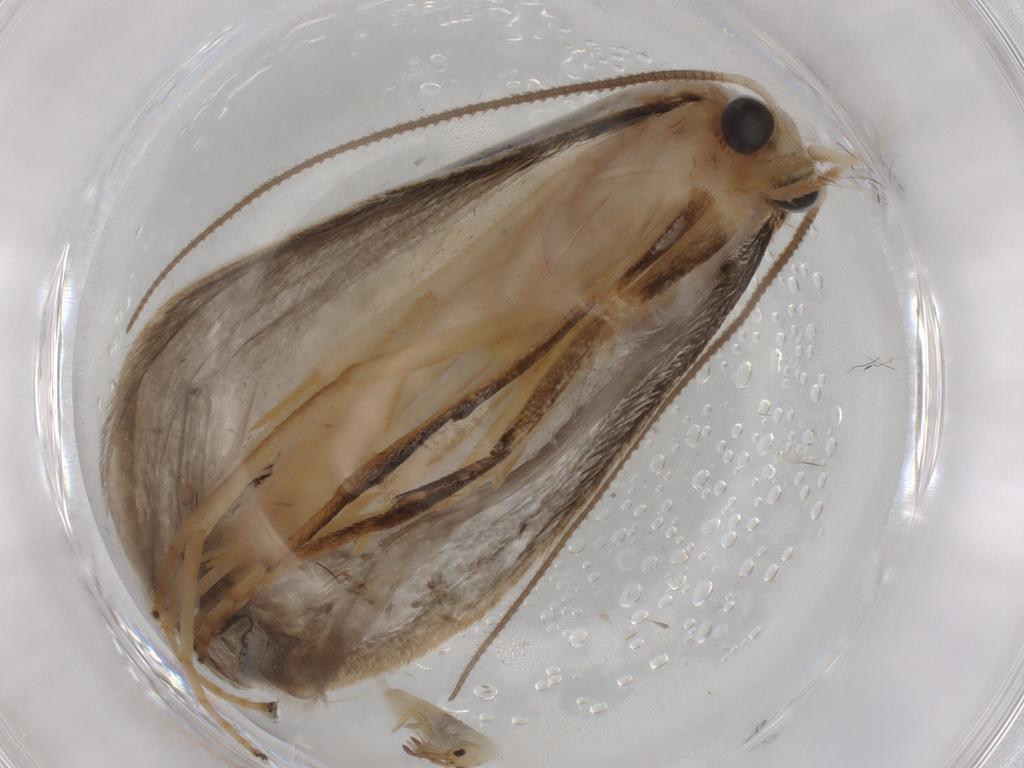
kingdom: Animalia
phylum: Arthropoda
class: Insecta
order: Lepidoptera
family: Yponomeutidae
